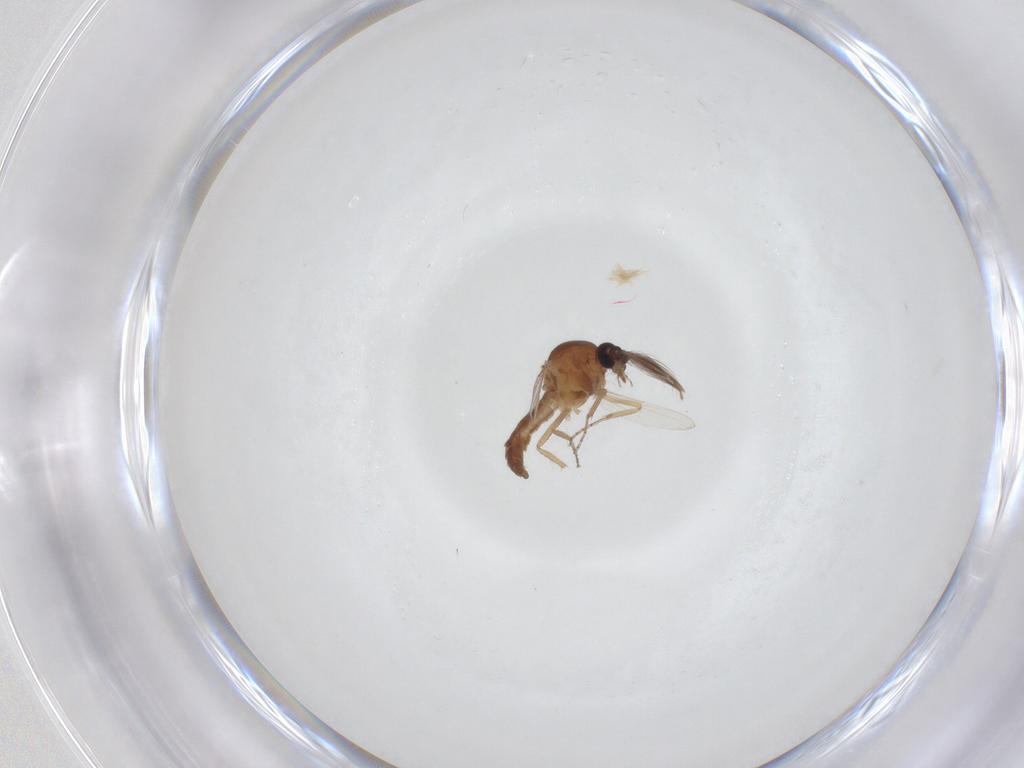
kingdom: Animalia
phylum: Arthropoda
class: Insecta
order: Diptera
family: Ceratopogonidae
